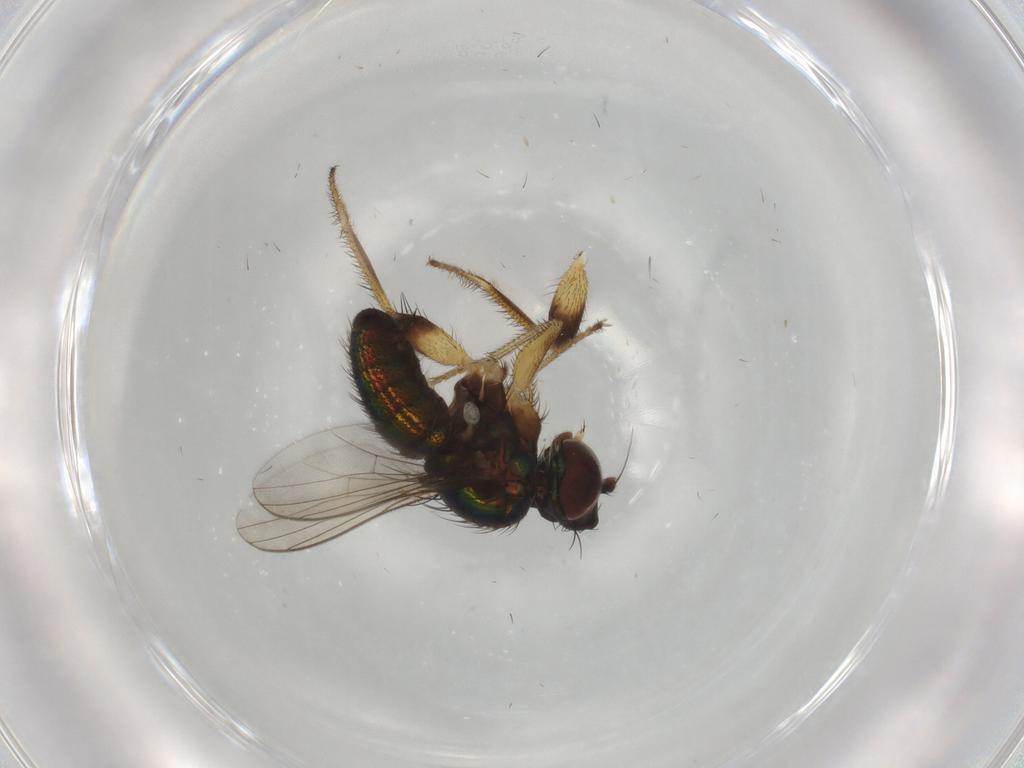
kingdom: Animalia
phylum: Arthropoda
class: Insecta
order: Diptera
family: Dolichopodidae
